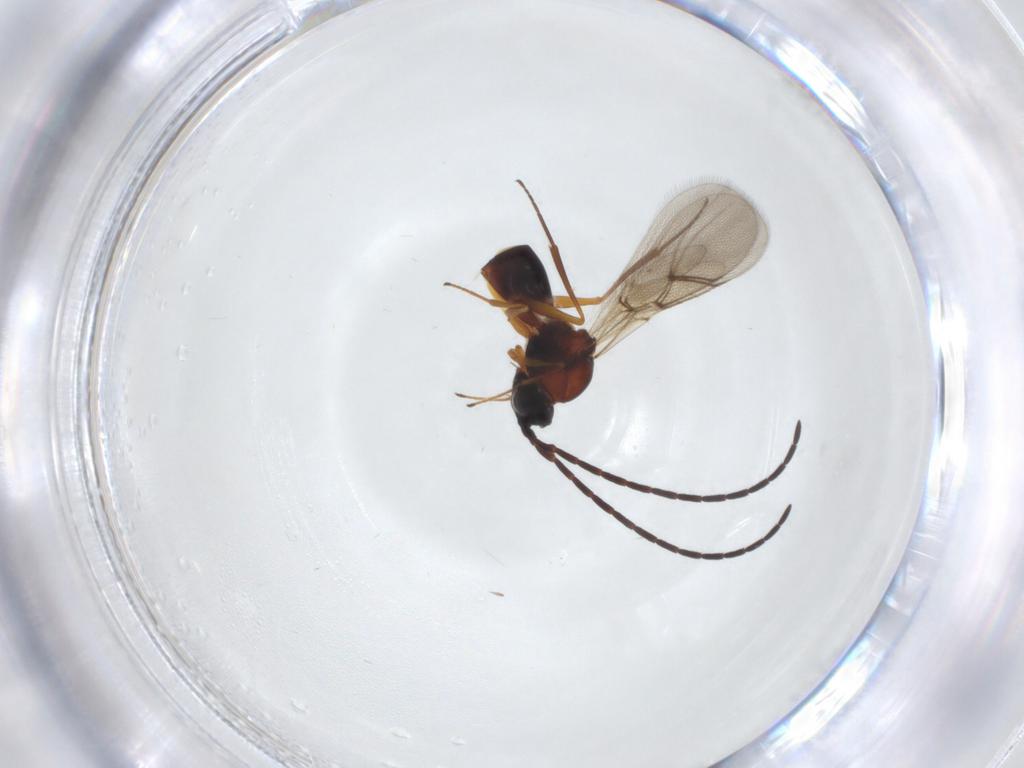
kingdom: Animalia
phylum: Arthropoda
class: Insecta
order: Hymenoptera
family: Figitidae
